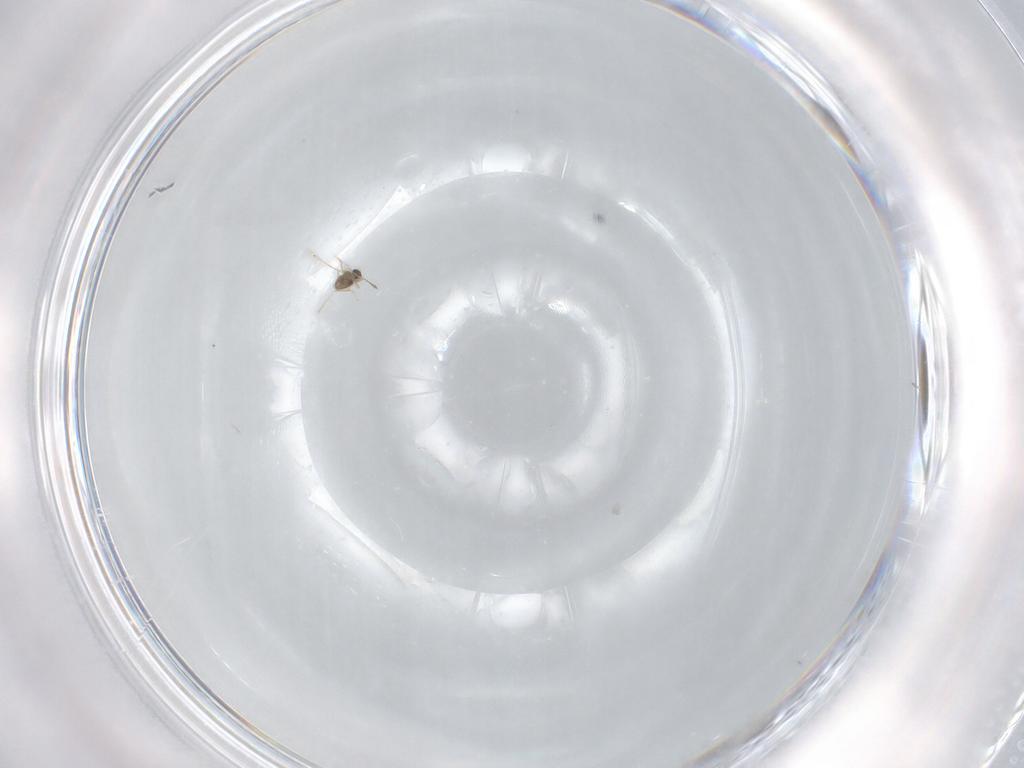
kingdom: Animalia
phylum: Arthropoda
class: Insecta
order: Hymenoptera
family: Braconidae
